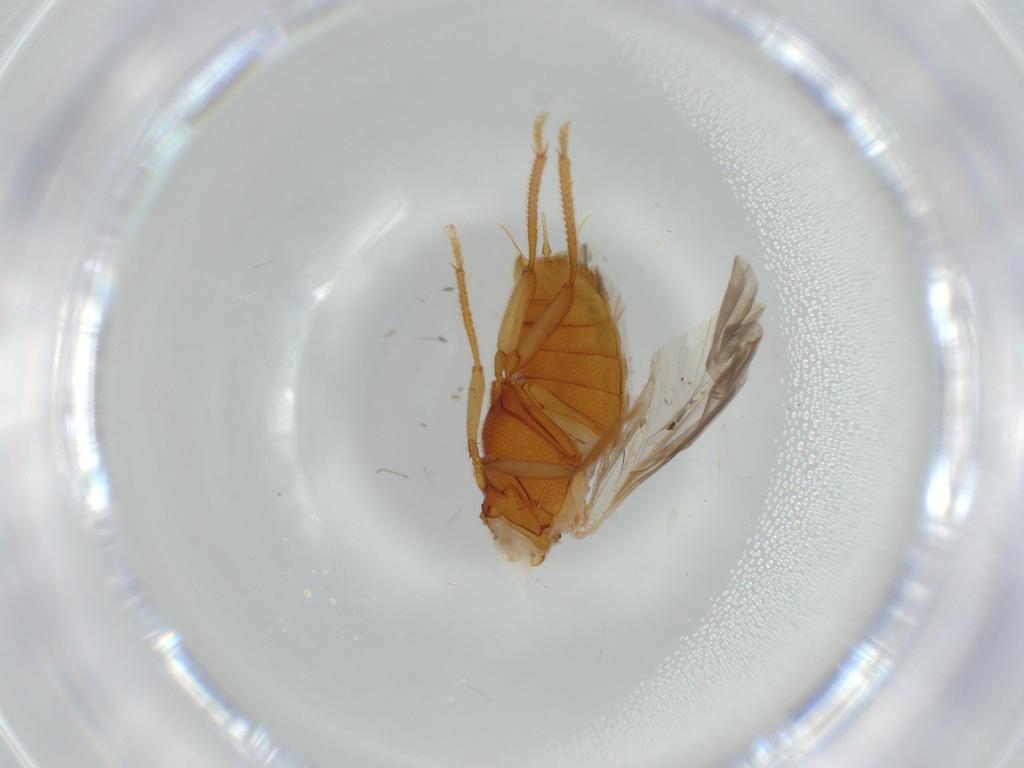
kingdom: Animalia
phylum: Arthropoda
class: Insecta
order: Coleoptera
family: Ptilodactylidae
